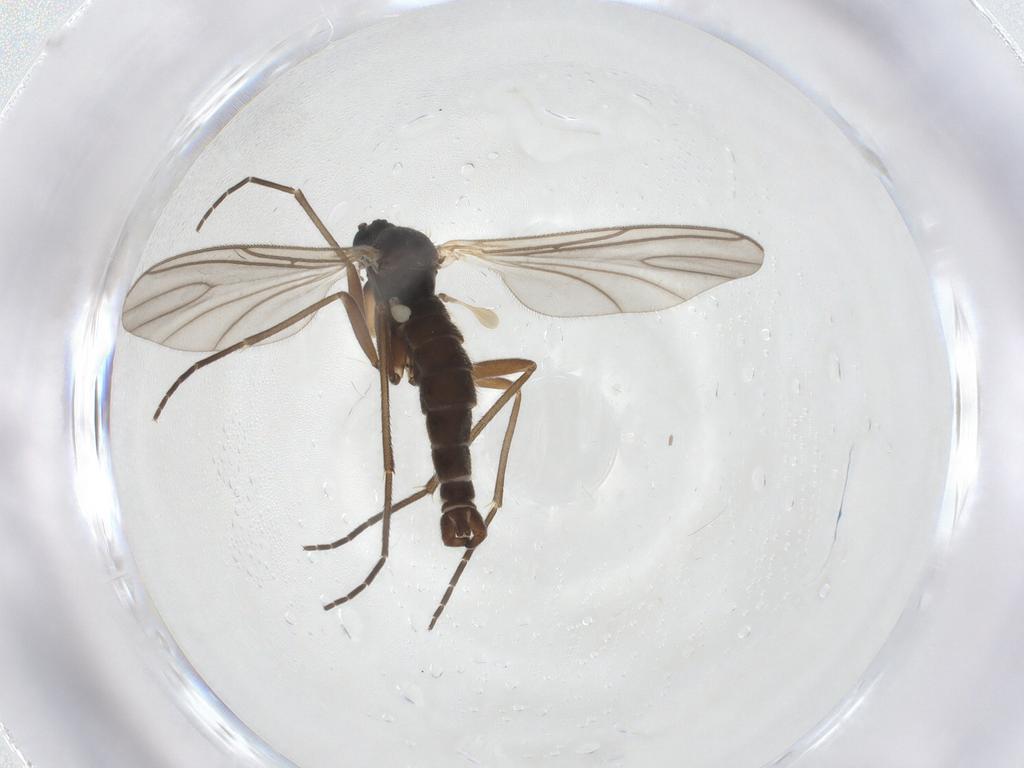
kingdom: Animalia
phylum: Arthropoda
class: Insecta
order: Diptera
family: Sciaridae
